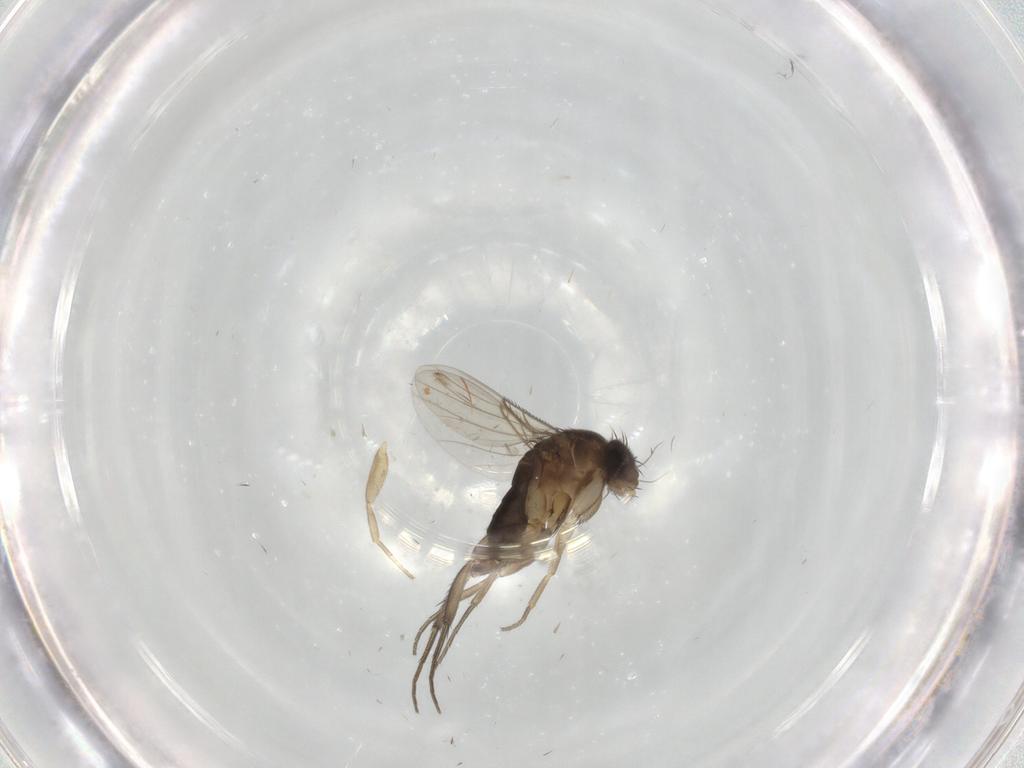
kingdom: Animalia
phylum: Arthropoda
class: Insecta
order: Diptera
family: Phoridae
